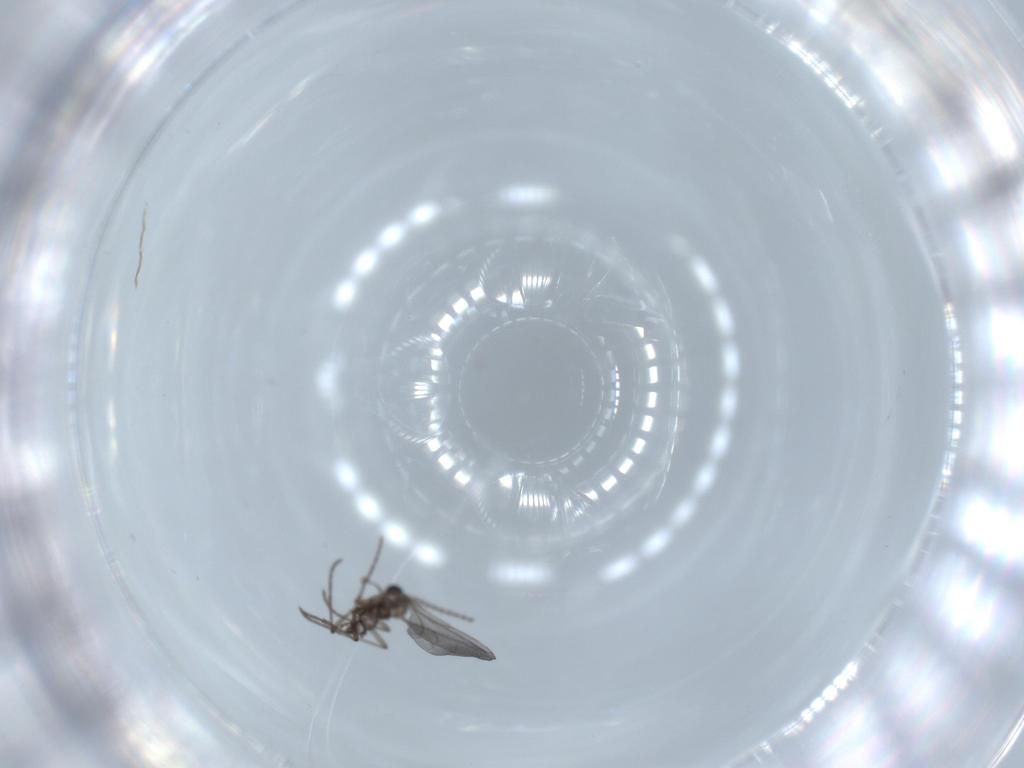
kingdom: Animalia
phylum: Arthropoda
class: Insecta
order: Diptera
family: Sciaridae
